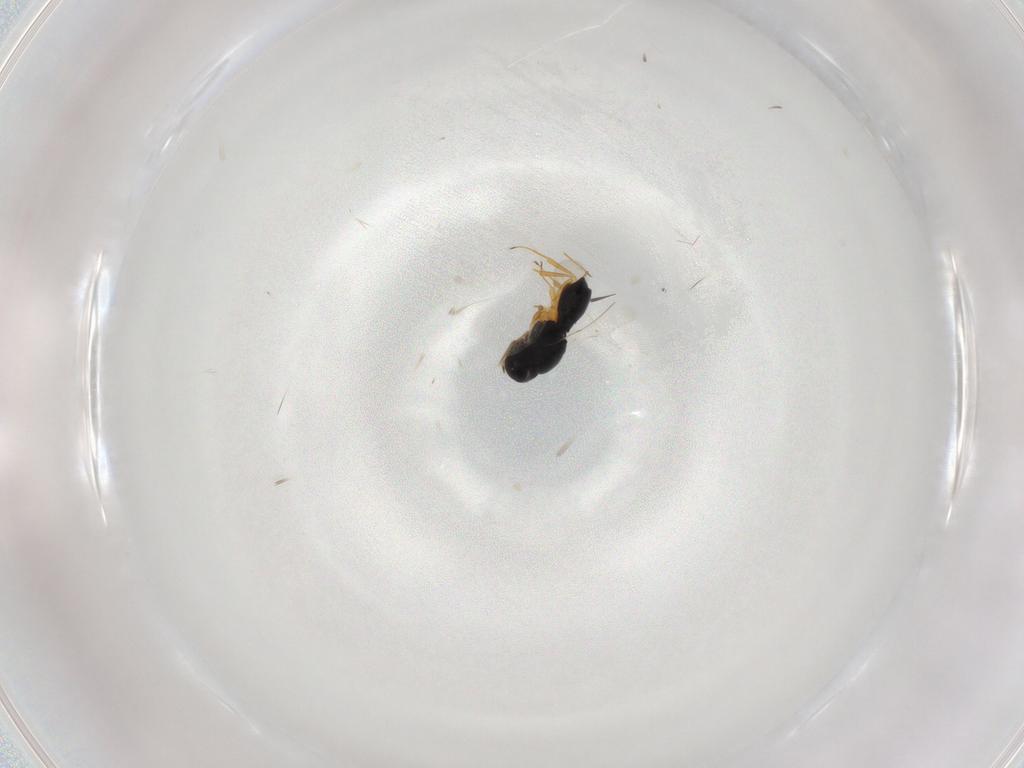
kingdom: Animalia
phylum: Arthropoda
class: Insecta
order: Hymenoptera
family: Scelionidae
